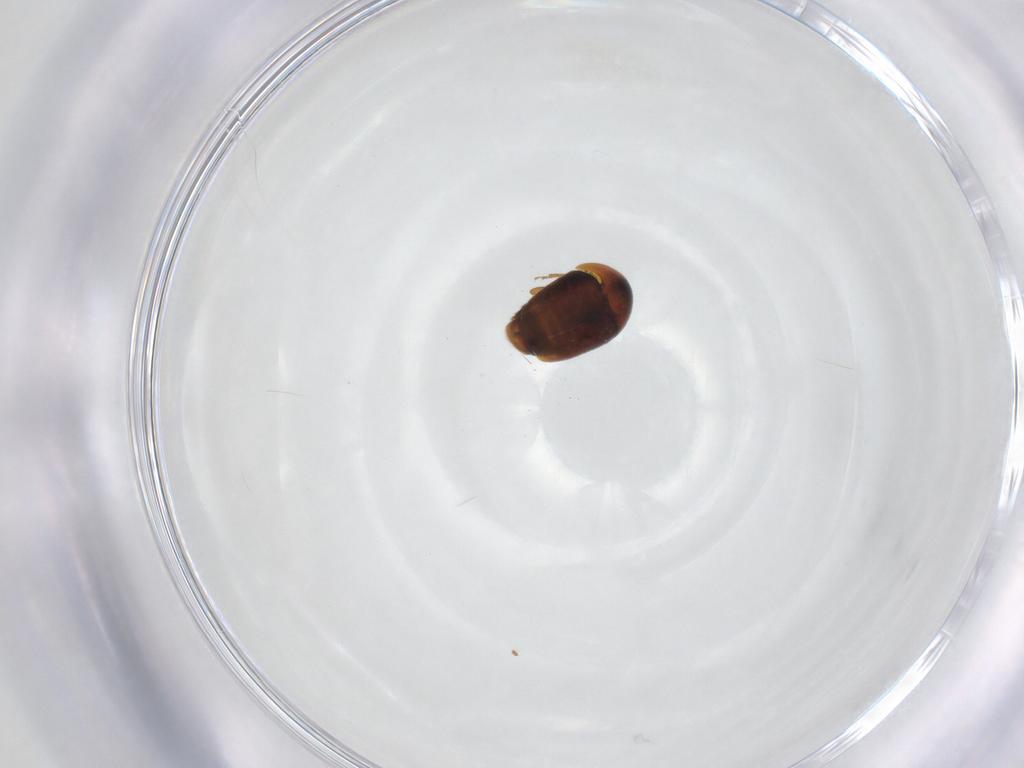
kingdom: Animalia
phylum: Arthropoda
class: Insecta
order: Coleoptera
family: Corylophidae
